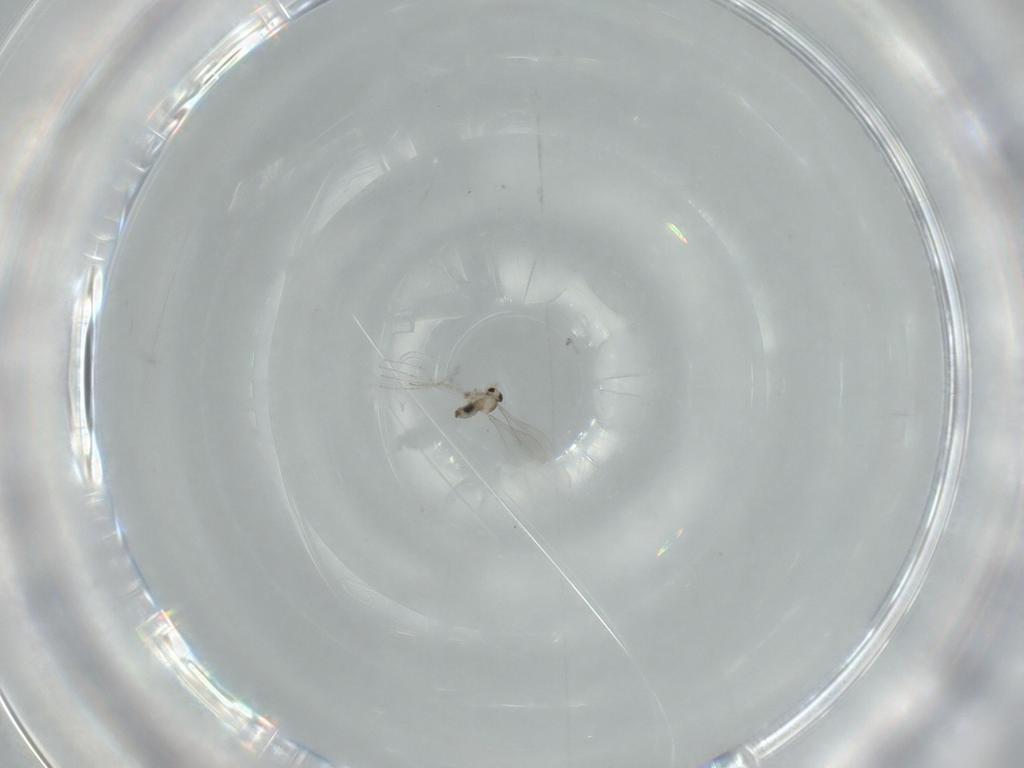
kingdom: Animalia
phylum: Arthropoda
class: Insecta
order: Diptera
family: Cecidomyiidae
